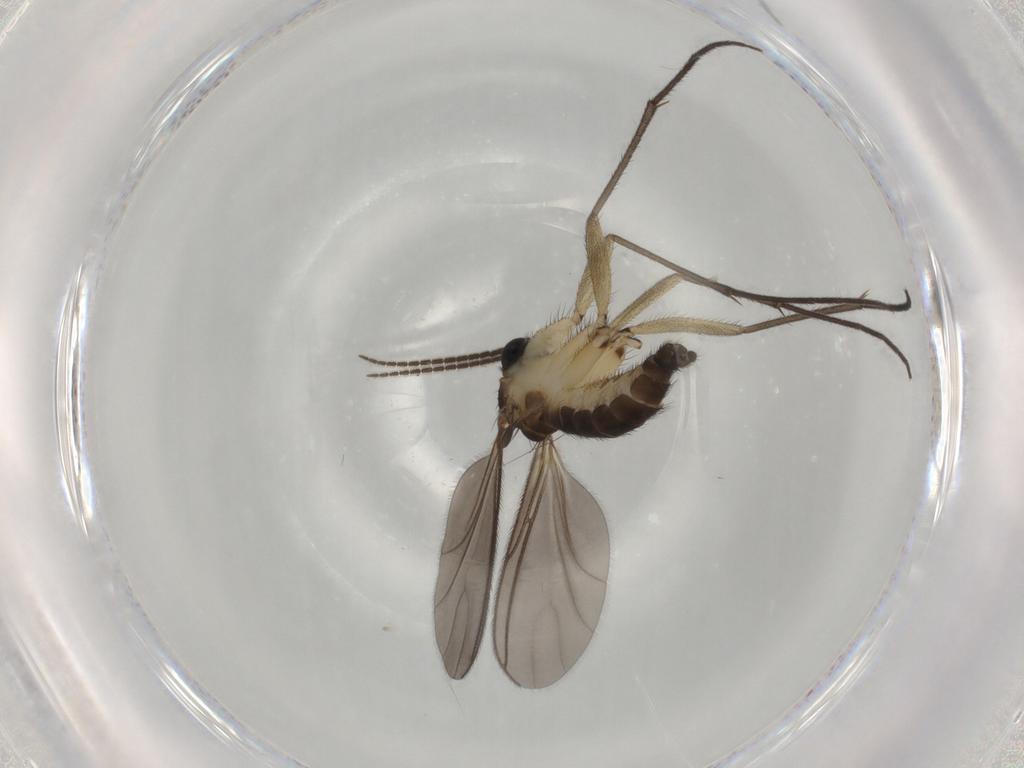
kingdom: Animalia
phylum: Arthropoda
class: Insecta
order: Diptera
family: Sciaridae
